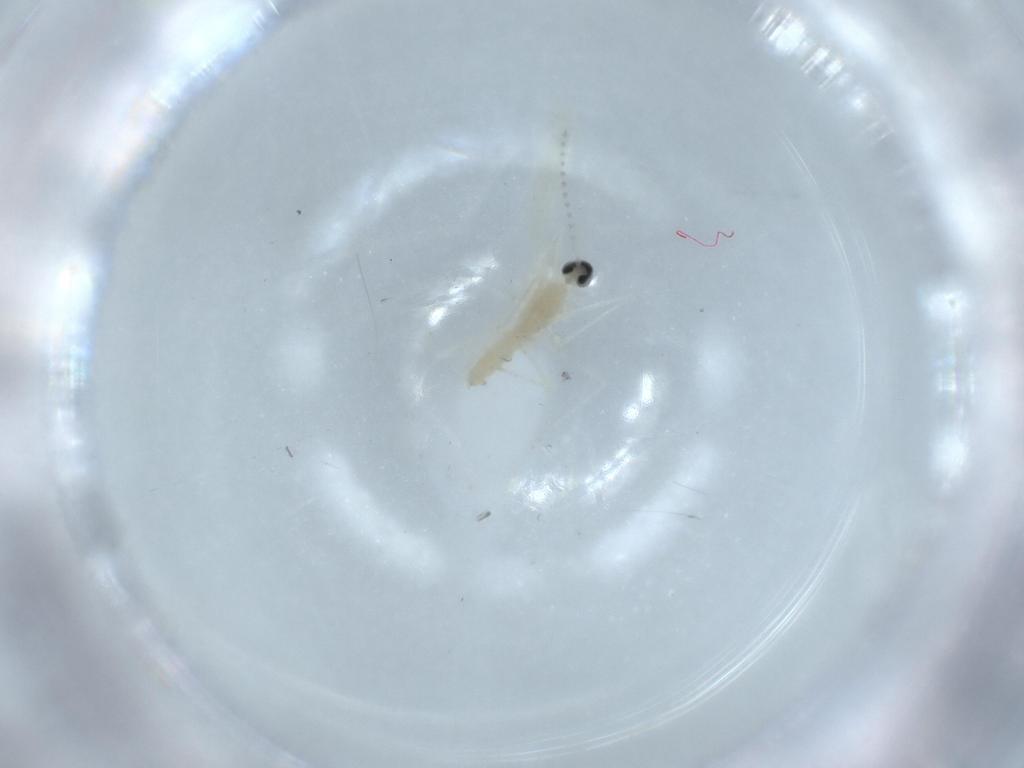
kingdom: Animalia
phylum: Arthropoda
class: Insecta
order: Diptera
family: Cecidomyiidae
